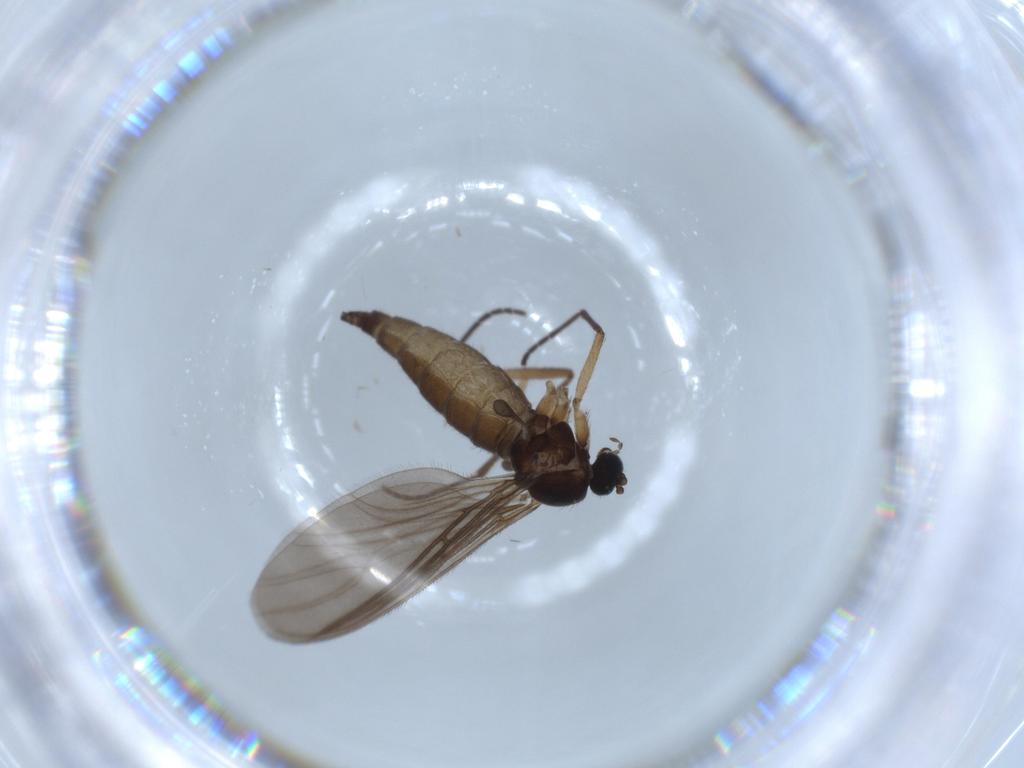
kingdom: Animalia
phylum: Arthropoda
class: Insecta
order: Diptera
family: Sciaridae
